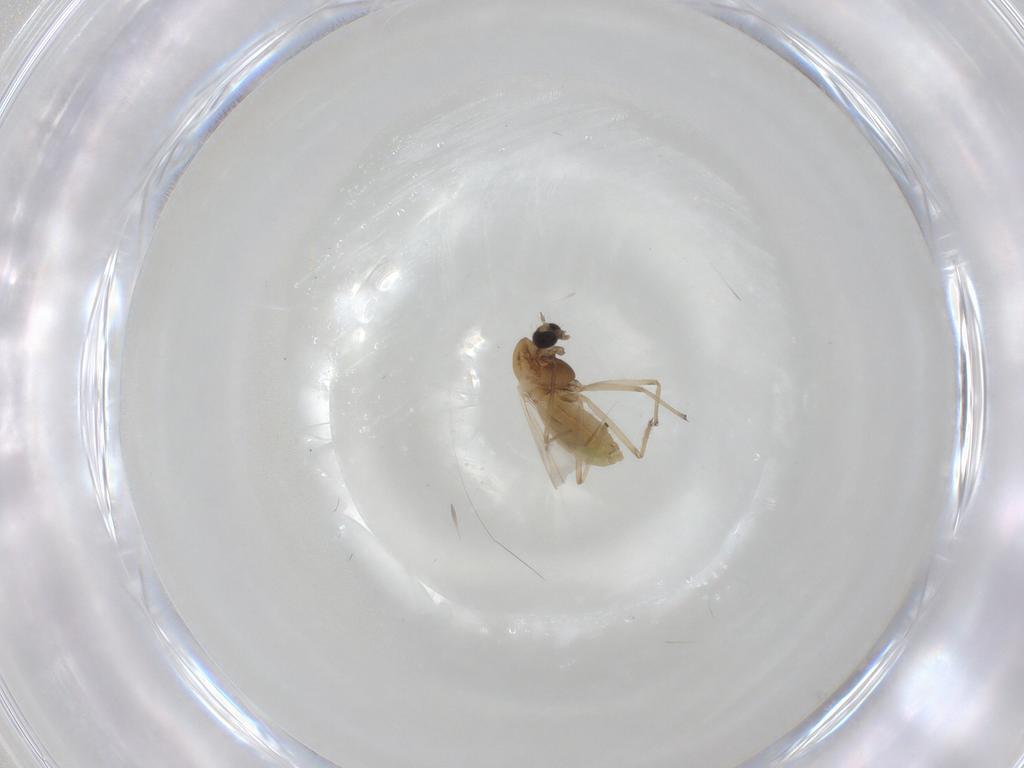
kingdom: Animalia
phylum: Arthropoda
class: Insecta
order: Diptera
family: Chironomidae
